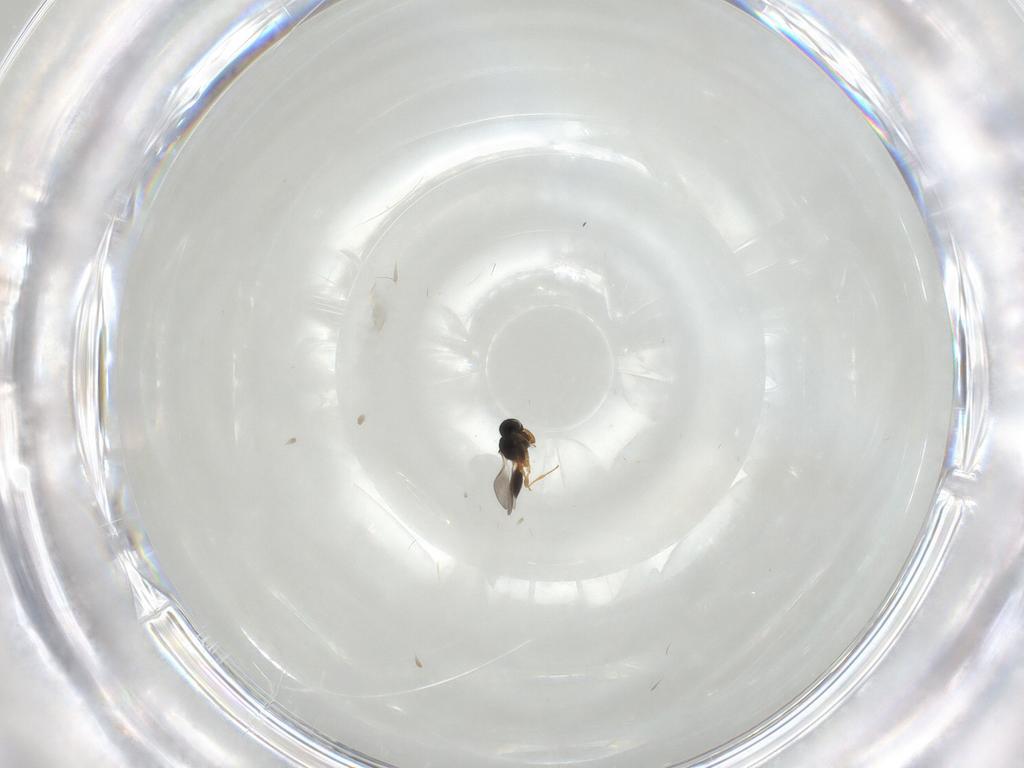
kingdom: Animalia
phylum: Arthropoda
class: Insecta
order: Hymenoptera
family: Platygastridae
